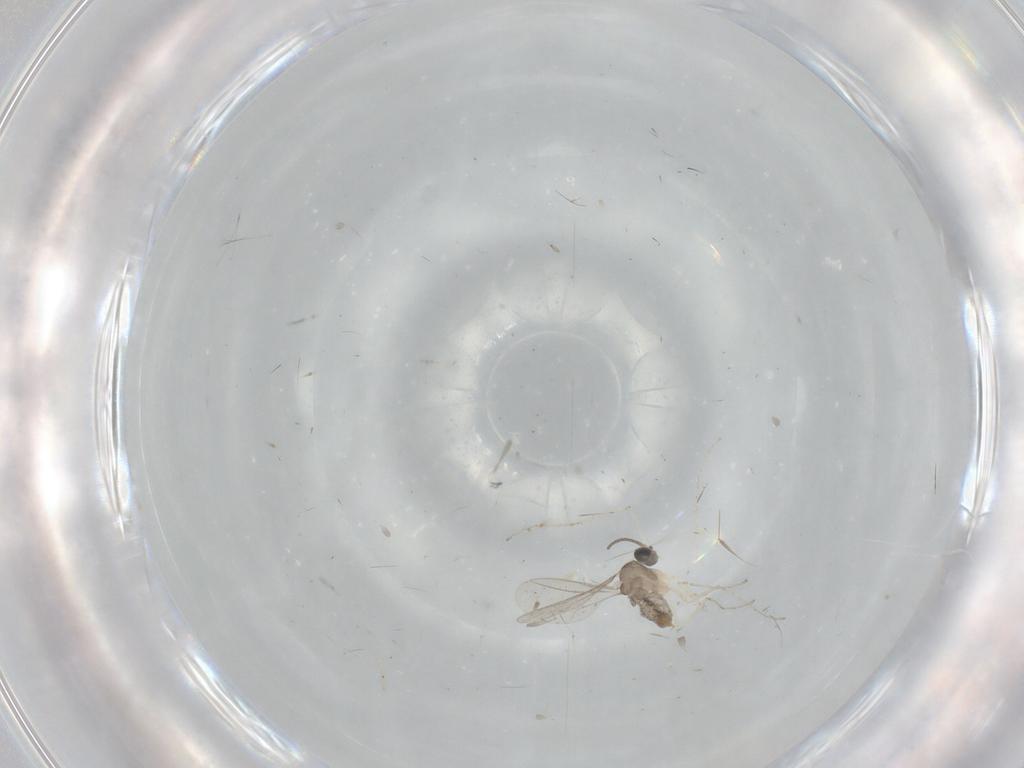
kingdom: Animalia
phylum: Arthropoda
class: Insecta
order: Diptera
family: Cecidomyiidae
